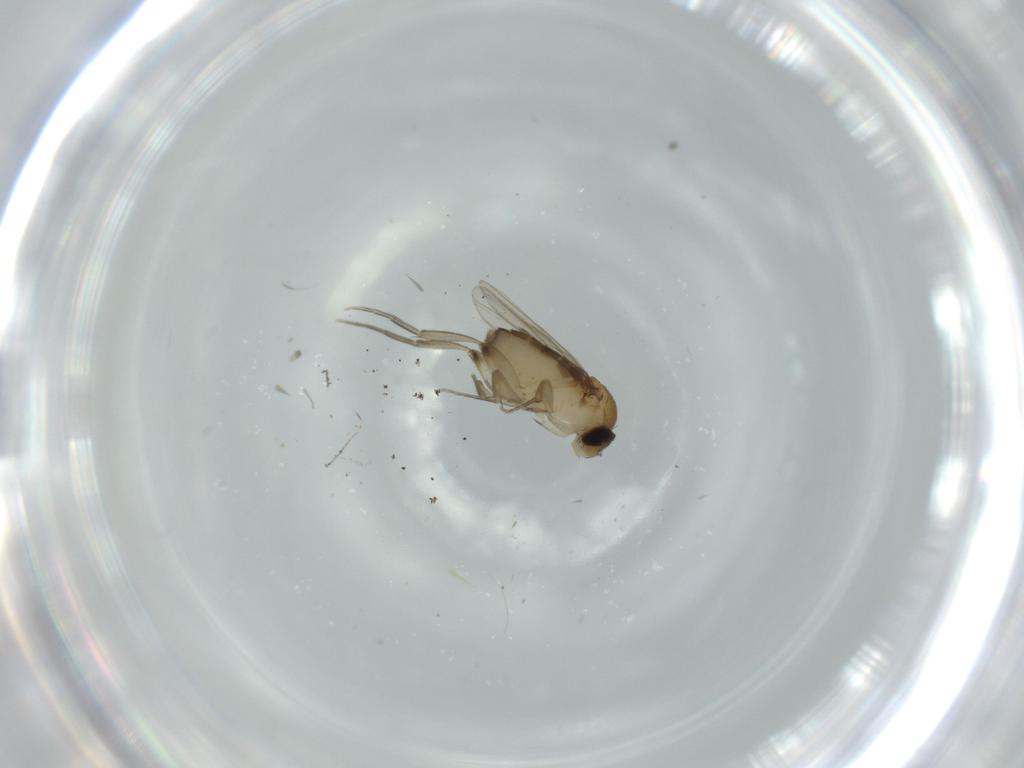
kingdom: Animalia
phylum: Arthropoda
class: Insecta
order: Diptera
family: Phoridae
